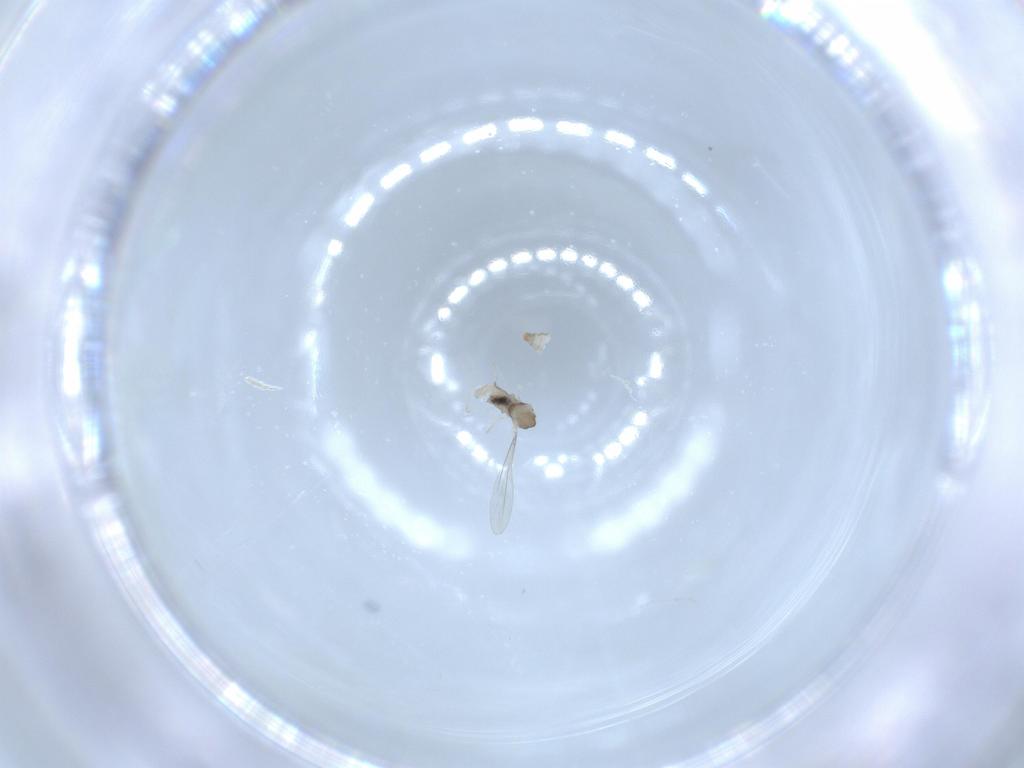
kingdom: Animalia
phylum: Arthropoda
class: Insecta
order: Diptera
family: Cecidomyiidae
